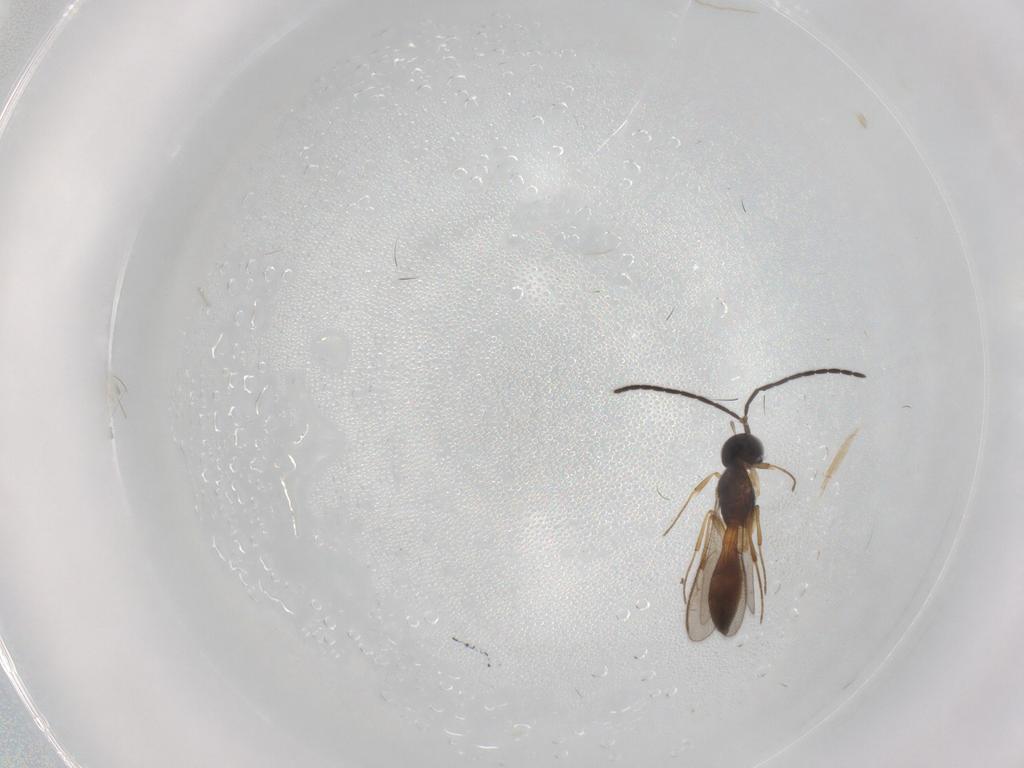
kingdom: Animalia
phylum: Arthropoda
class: Insecta
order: Hymenoptera
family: Scelionidae
